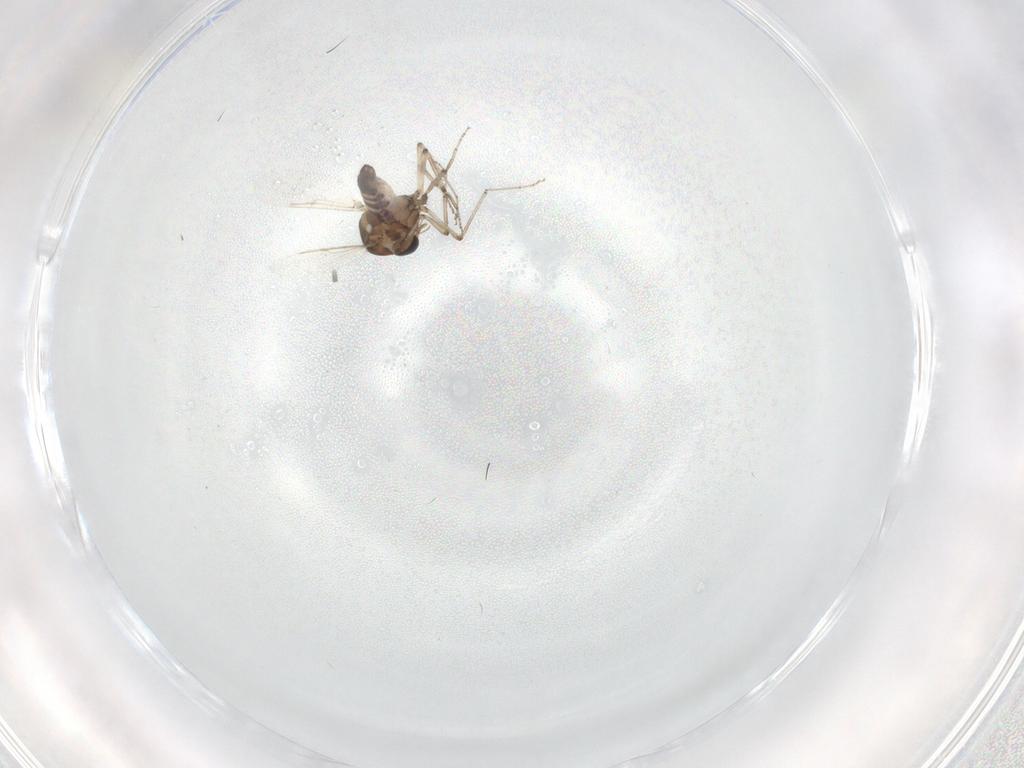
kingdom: Animalia
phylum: Arthropoda
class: Insecta
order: Diptera
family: Ceratopogonidae
